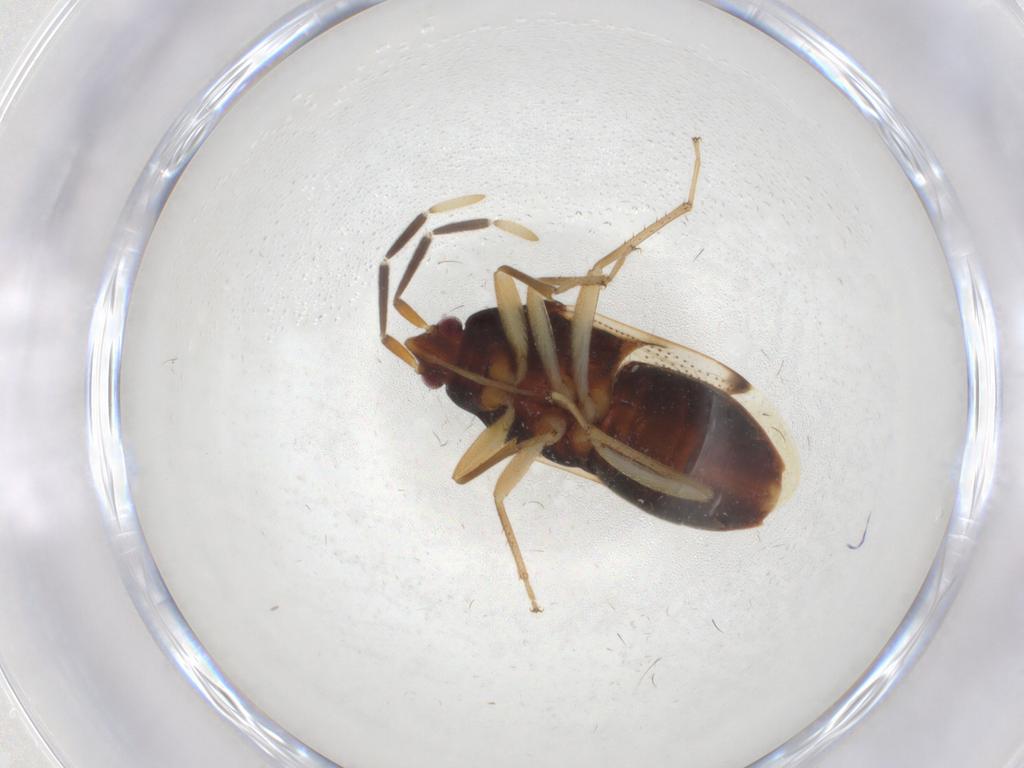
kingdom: Animalia
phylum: Arthropoda
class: Insecta
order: Hemiptera
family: Rhyparochromidae
